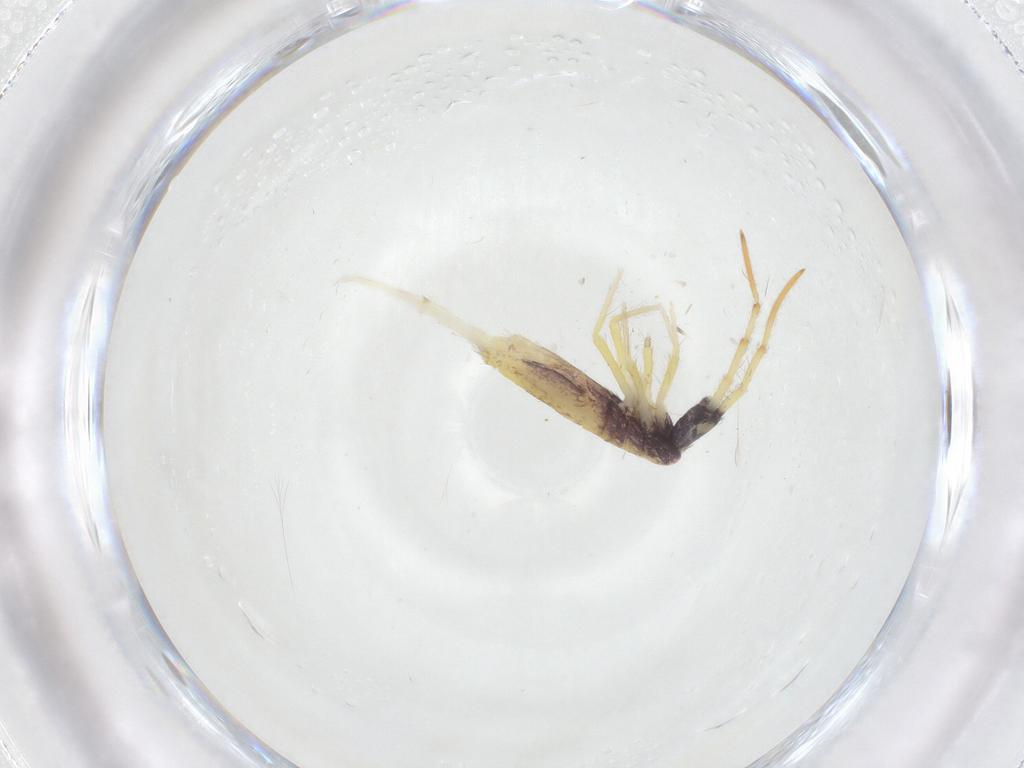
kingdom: Animalia
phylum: Arthropoda
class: Collembola
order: Entomobryomorpha
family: Entomobryidae
